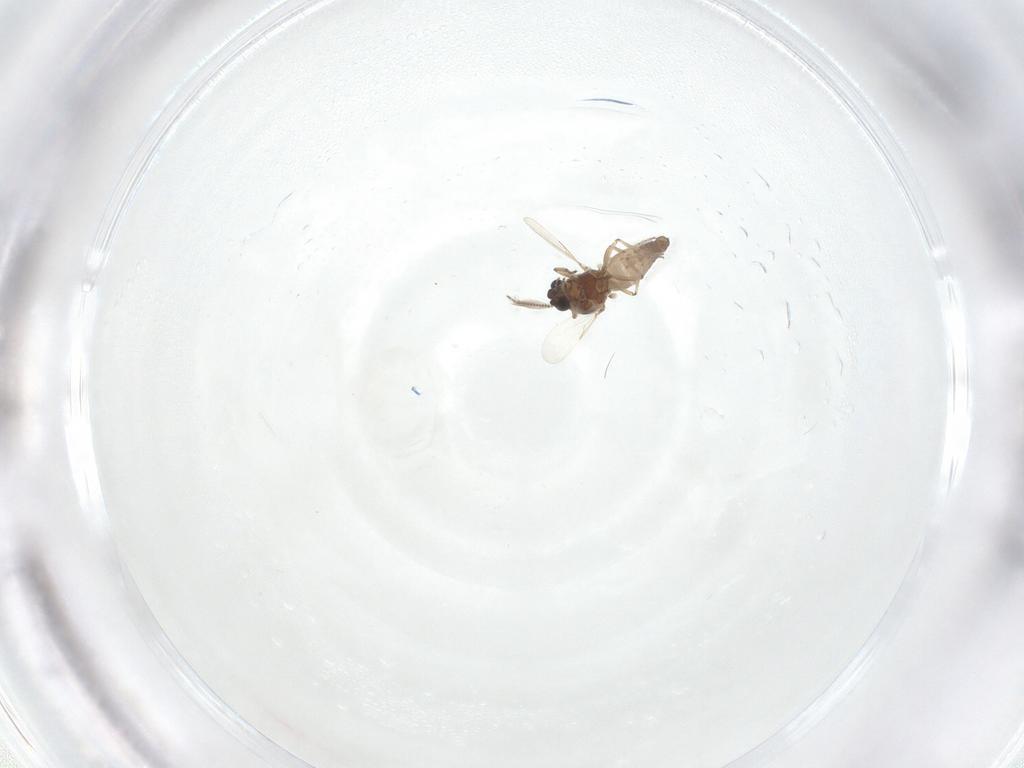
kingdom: Animalia
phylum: Arthropoda
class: Insecta
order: Diptera
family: Ceratopogonidae
